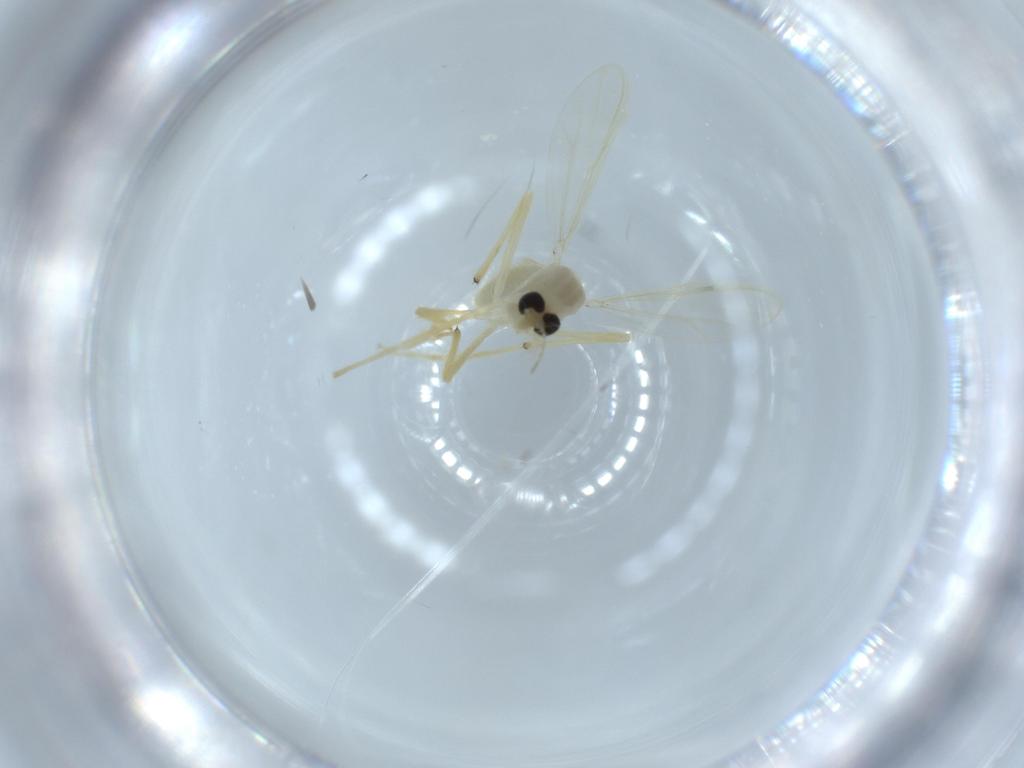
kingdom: Animalia
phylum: Arthropoda
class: Insecta
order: Diptera
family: Chironomidae
